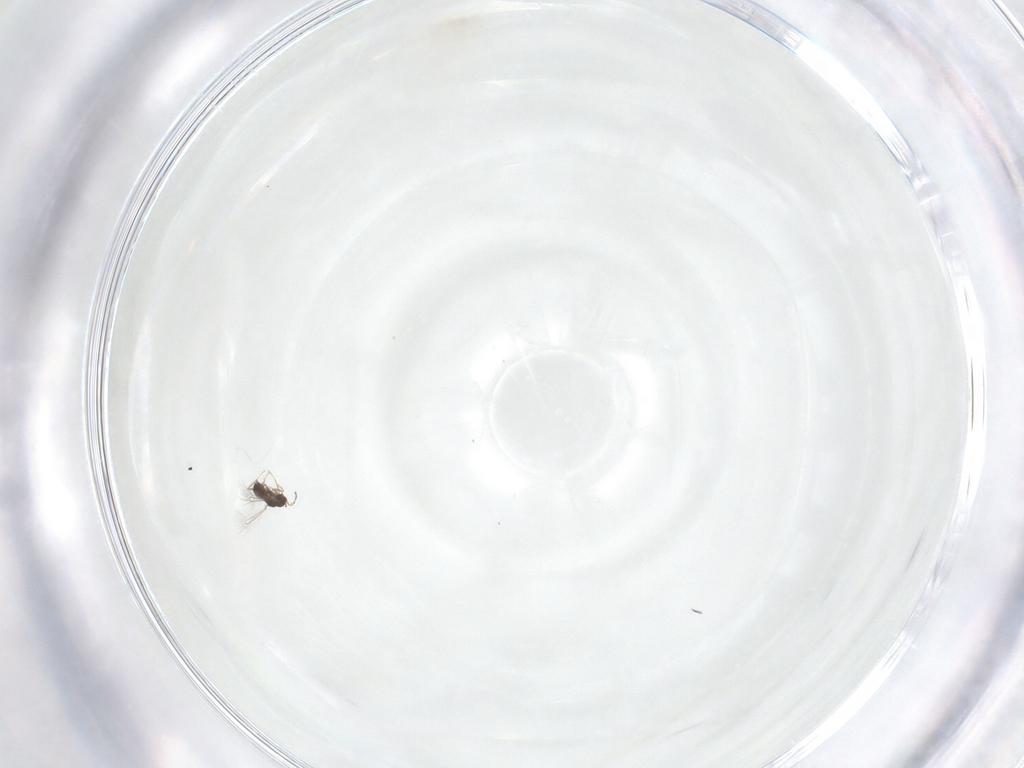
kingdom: Animalia
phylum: Arthropoda
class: Insecta
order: Hymenoptera
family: Mymaridae
